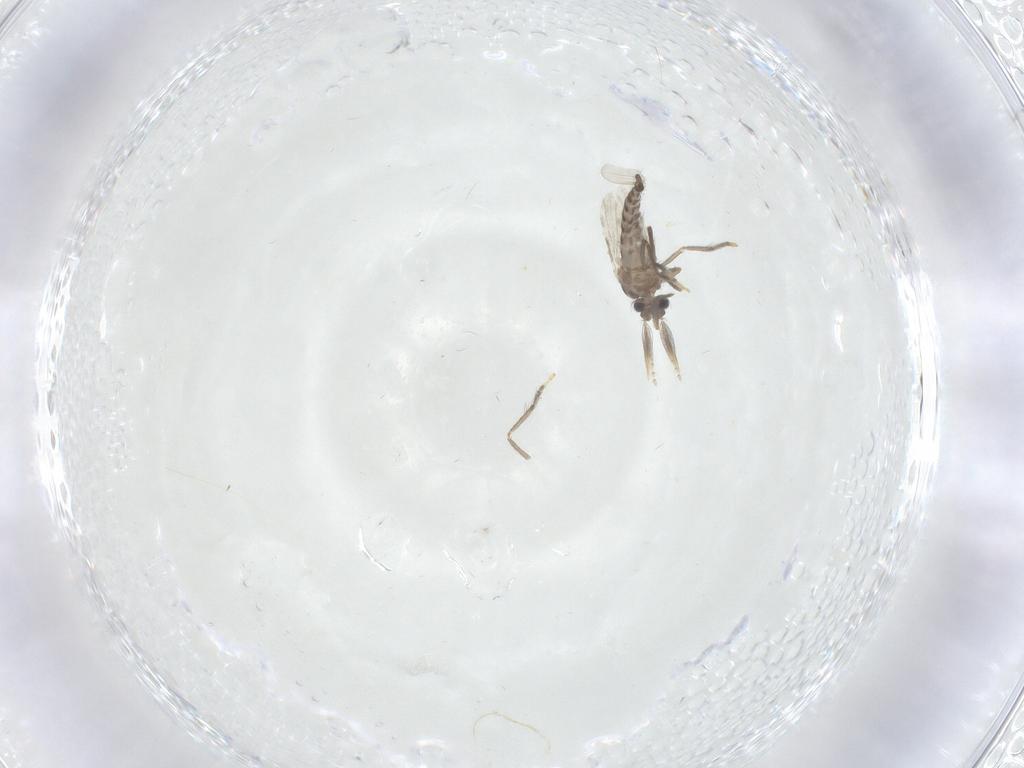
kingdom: Animalia
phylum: Arthropoda
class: Insecta
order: Diptera
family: Ceratopogonidae
